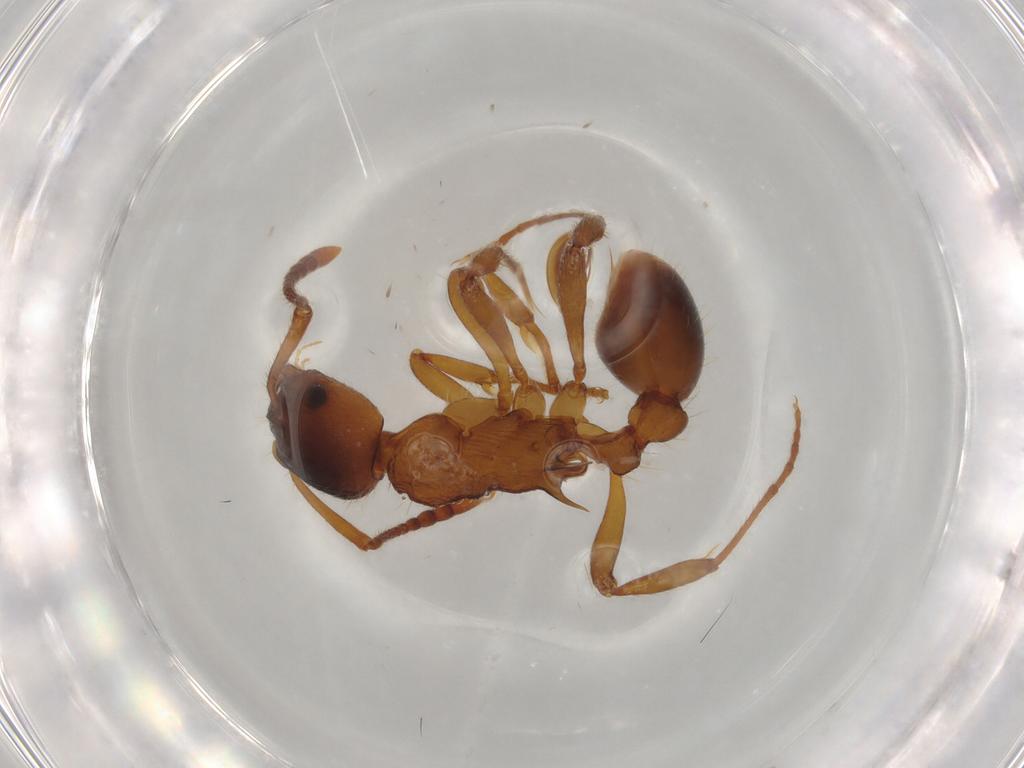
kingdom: Animalia
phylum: Arthropoda
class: Insecta
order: Hymenoptera
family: Formicidae
